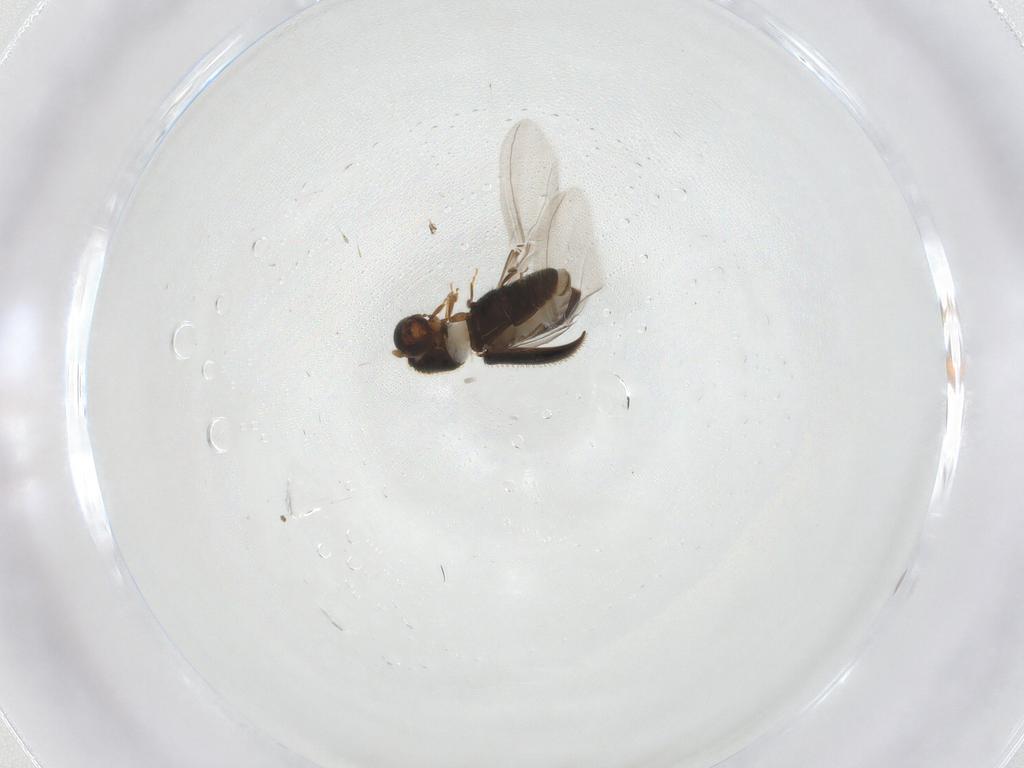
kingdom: Animalia
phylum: Arthropoda
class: Insecta
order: Coleoptera
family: Curculionidae
